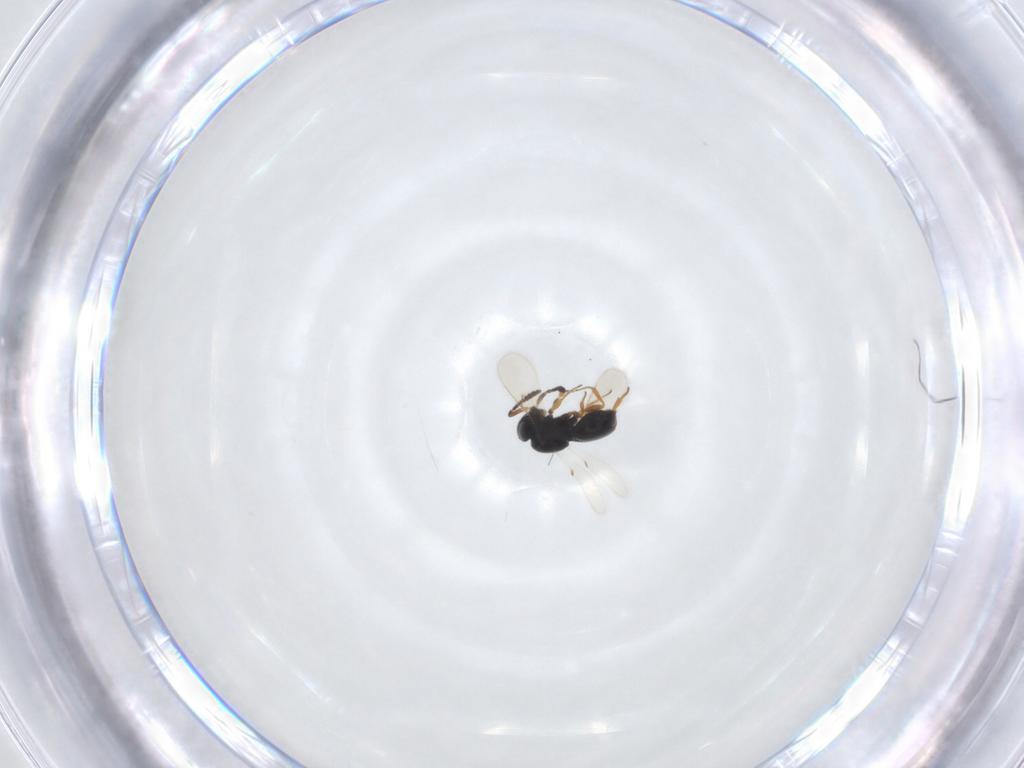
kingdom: Animalia
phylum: Arthropoda
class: Insecta
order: Hymenoptera
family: Scelionidae
